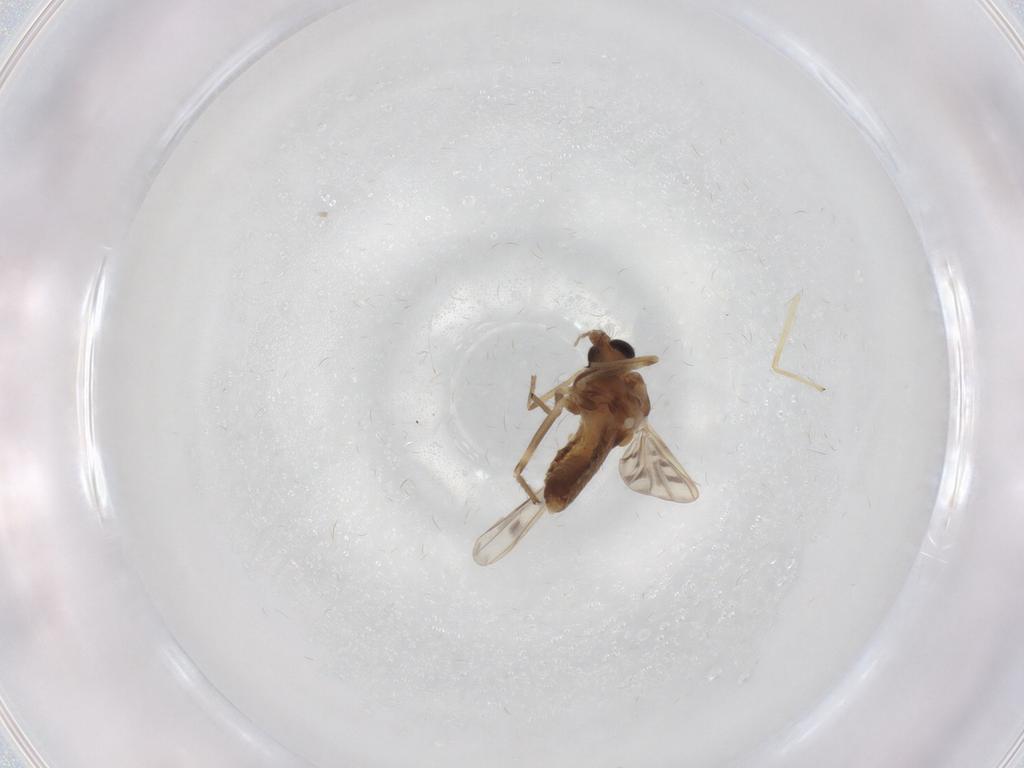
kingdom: Animalia
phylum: Arthropoda
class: Insecta
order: Diptera
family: Chironomidae
